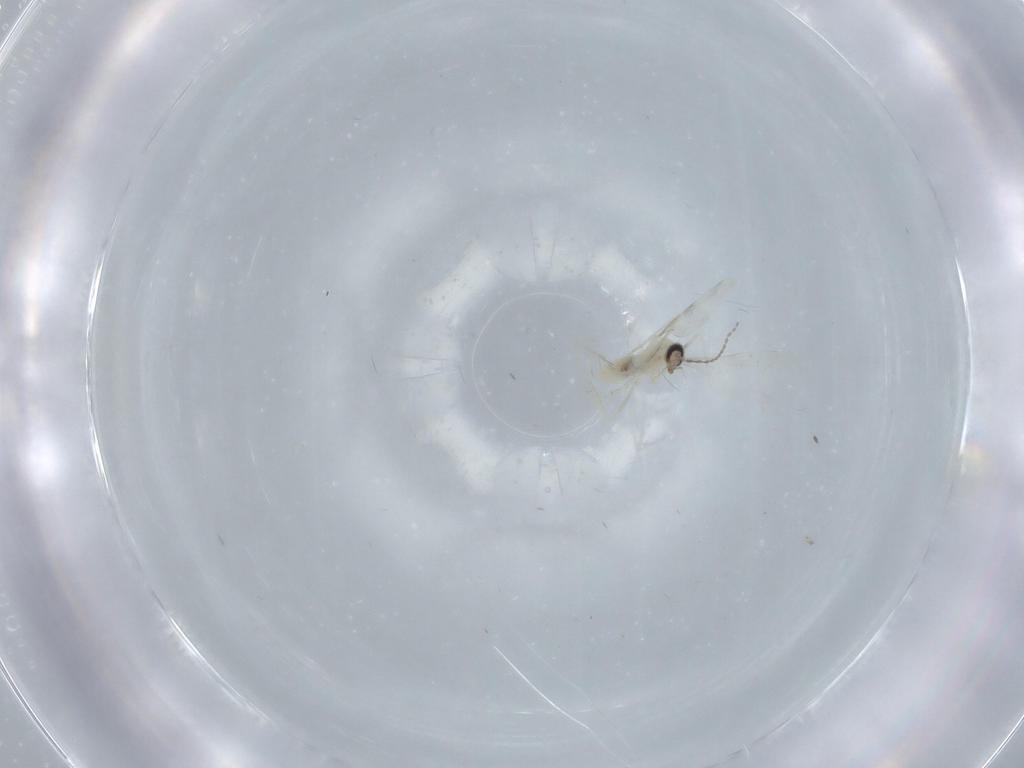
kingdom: Animalia
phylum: Arthropoda
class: Insecta
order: Diptera
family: Cecidomyiidae
